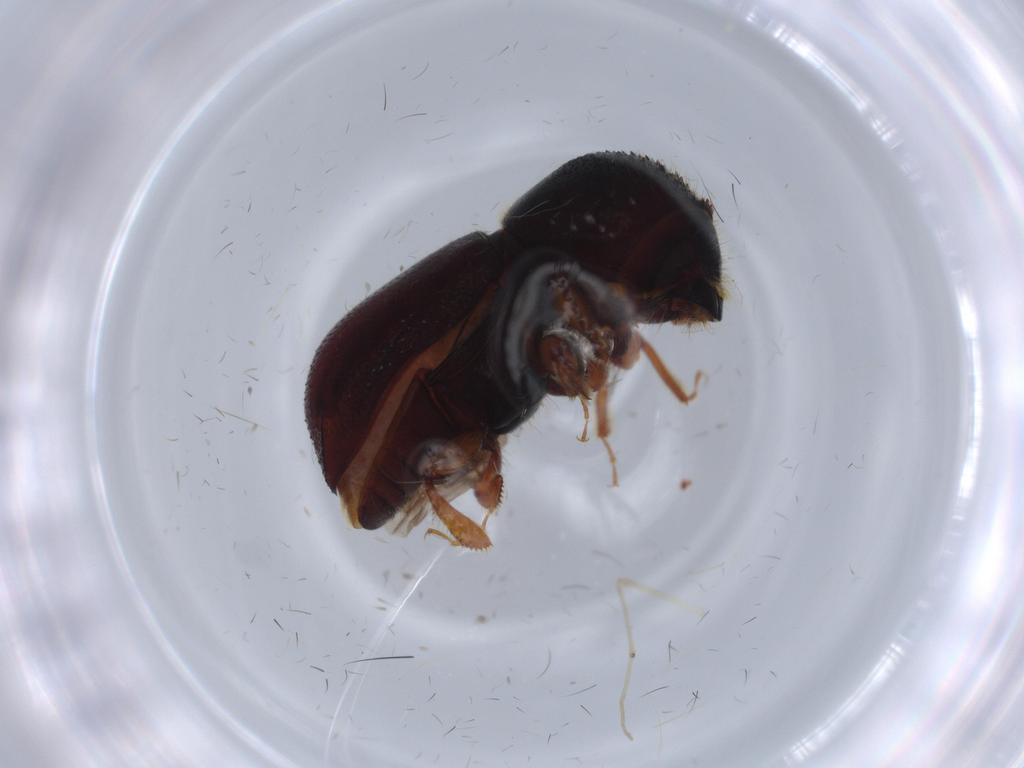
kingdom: Animalia
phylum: Arthropoda
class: Insecta
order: Coleoptera
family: Curculionidae
